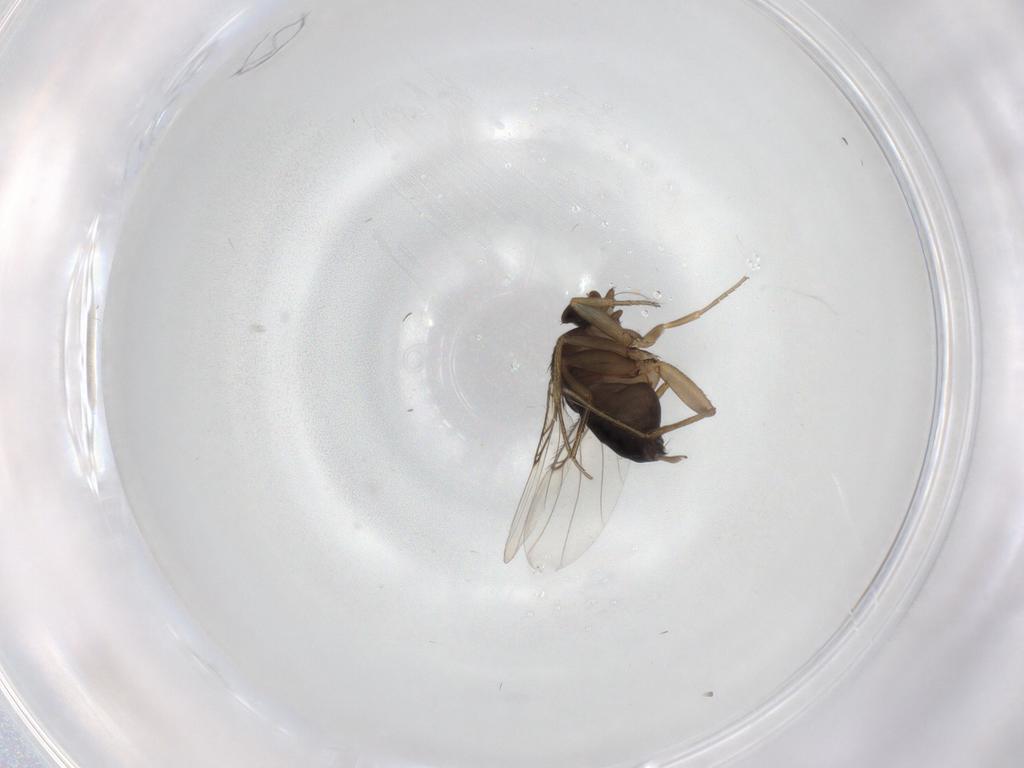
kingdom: Animalia
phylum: Arthropoda
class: Insecta
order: Diptera
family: Phoridae
